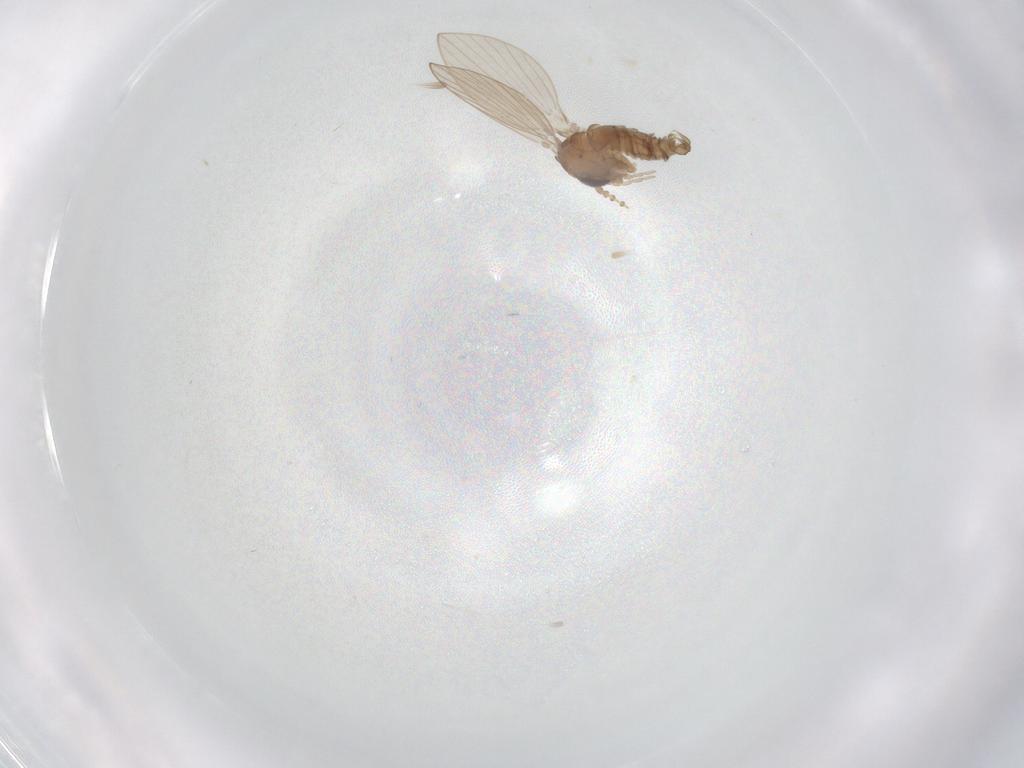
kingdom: Animalia
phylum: Arthropoda
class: Insecta
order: Diptera
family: Psychodidae
